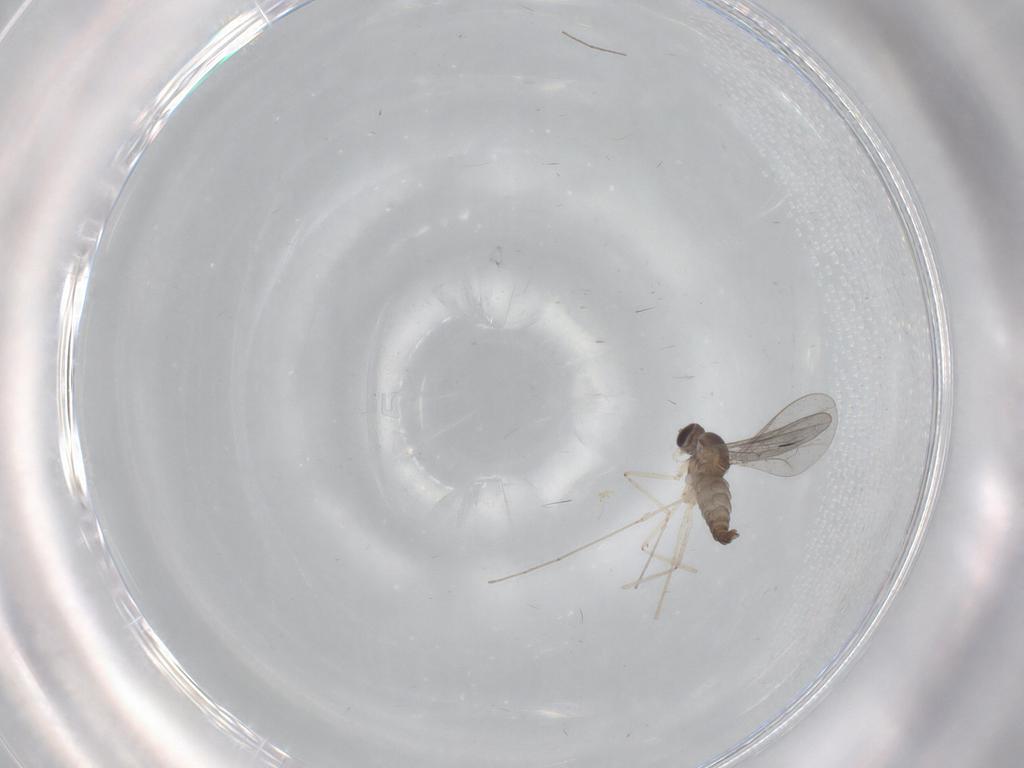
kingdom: Animalia
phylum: Arthropoda
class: Insecta
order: Diptera
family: Cecidomyiidae
